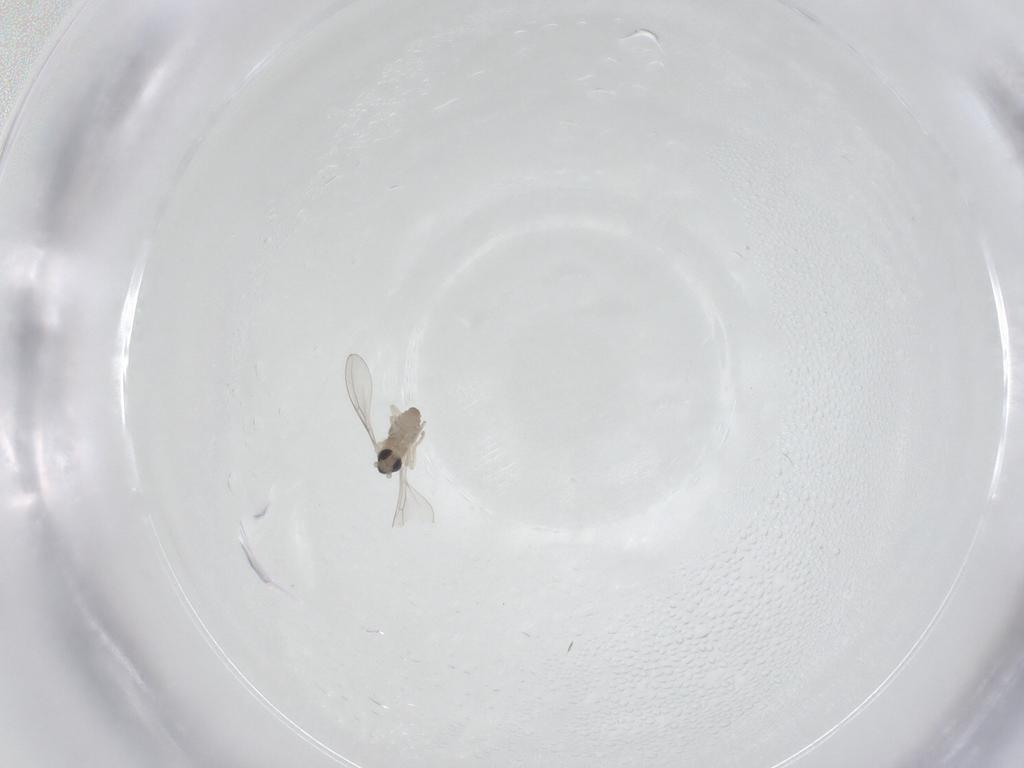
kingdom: Animalia
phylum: Arthropoda
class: Insecta
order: Diptera
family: Cecidomyiidae
